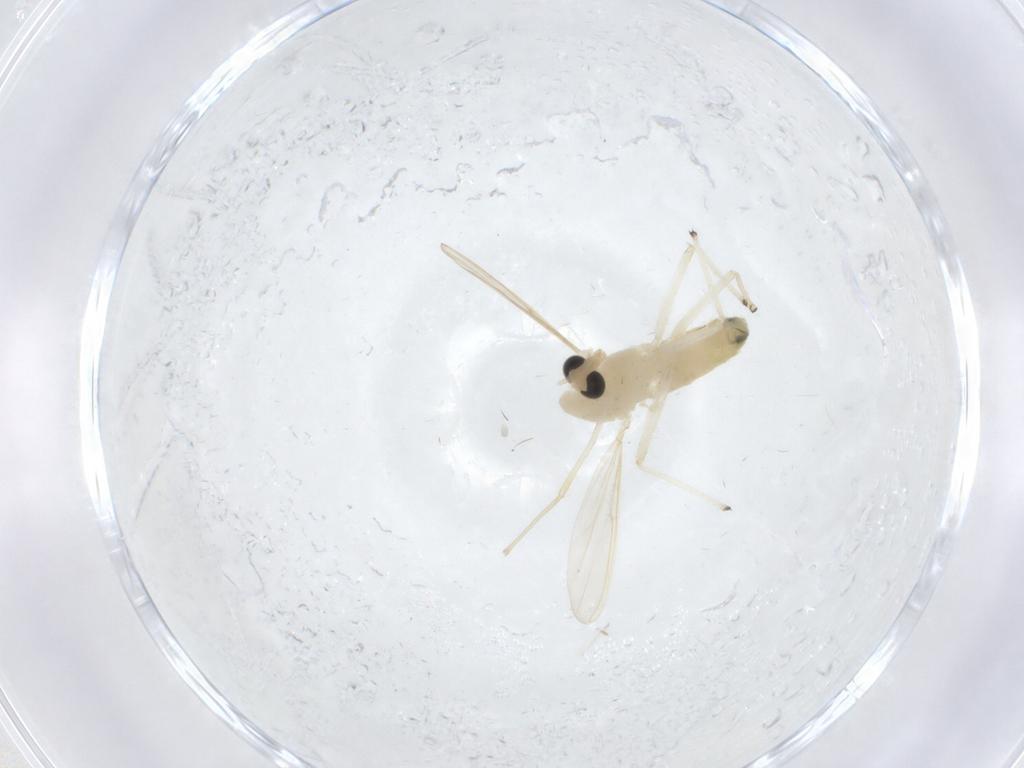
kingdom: Animalia
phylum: Arthropoda
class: Insecta
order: Diptera
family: Chironomidae
